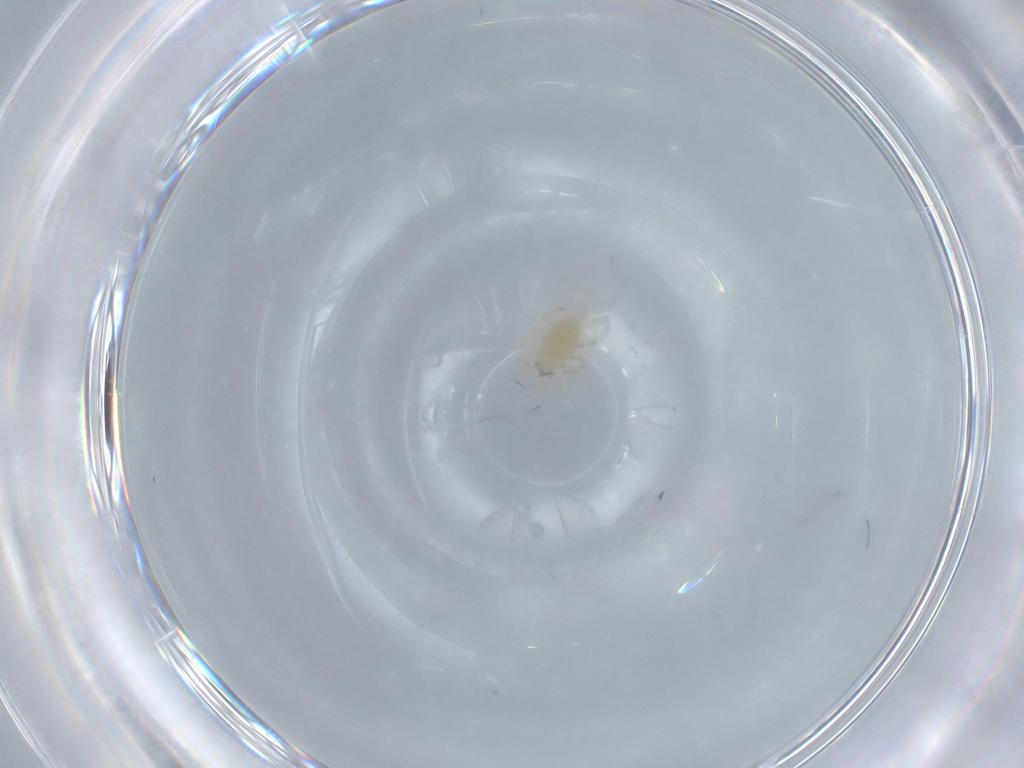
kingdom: Animalia
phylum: Arthropoda
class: Insecta
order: Neuroptera
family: Coniopterygidae
